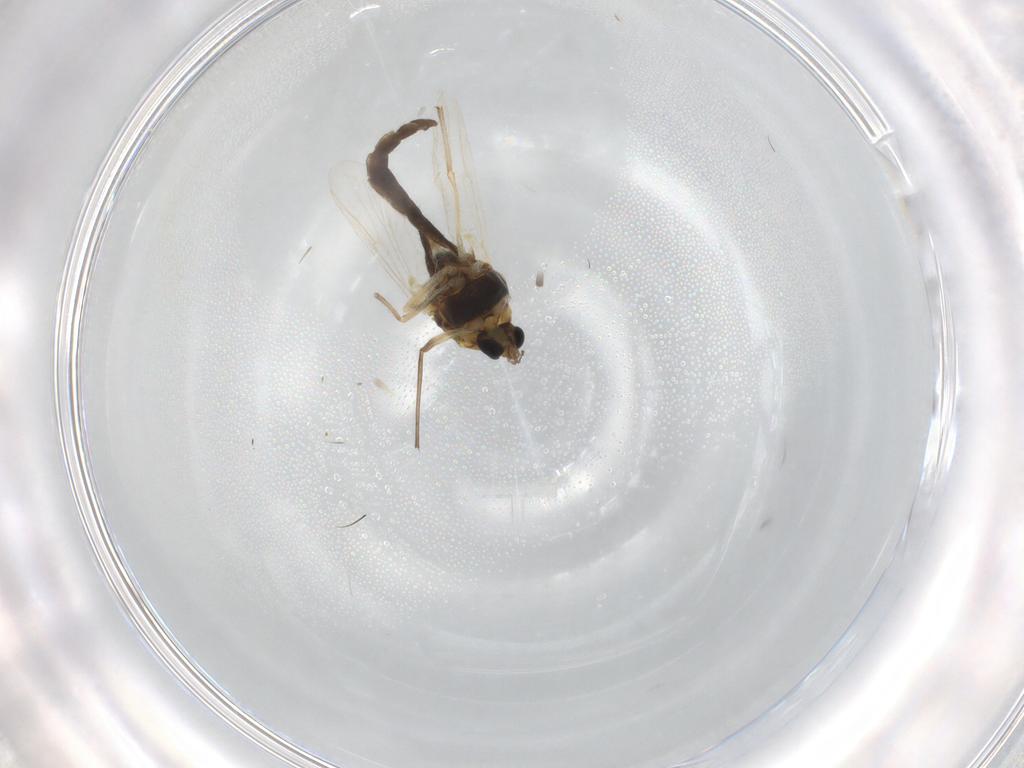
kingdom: Animalia
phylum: Arthropoda
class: Insecta
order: Diptera
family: Chironomidae
